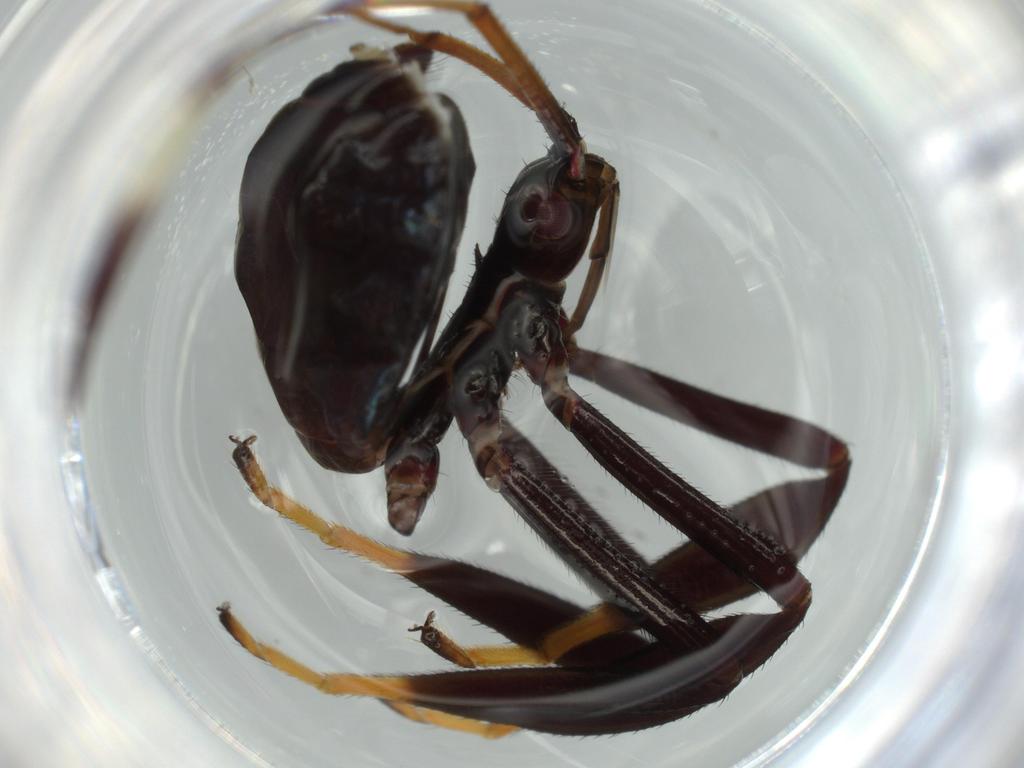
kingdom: Animalia
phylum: Arthropoda
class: Insecta
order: Hemiptera
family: Coreidae
